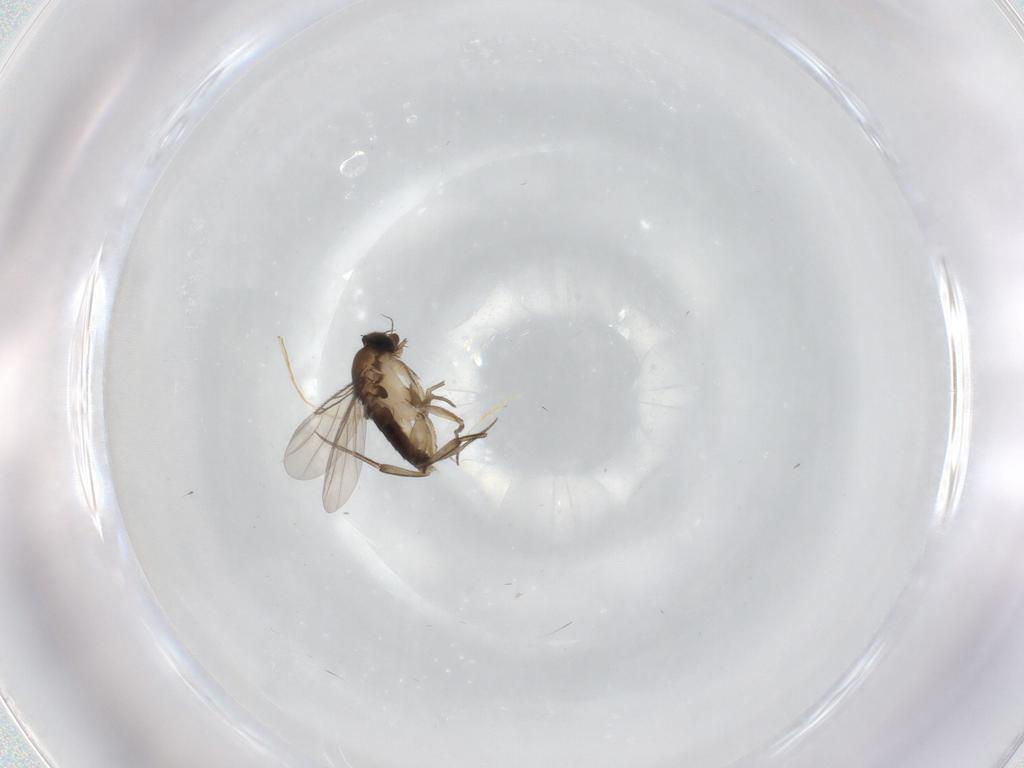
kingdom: Animalia
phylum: Arthropoda
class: Insecta
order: Diptera
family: Phoridae
